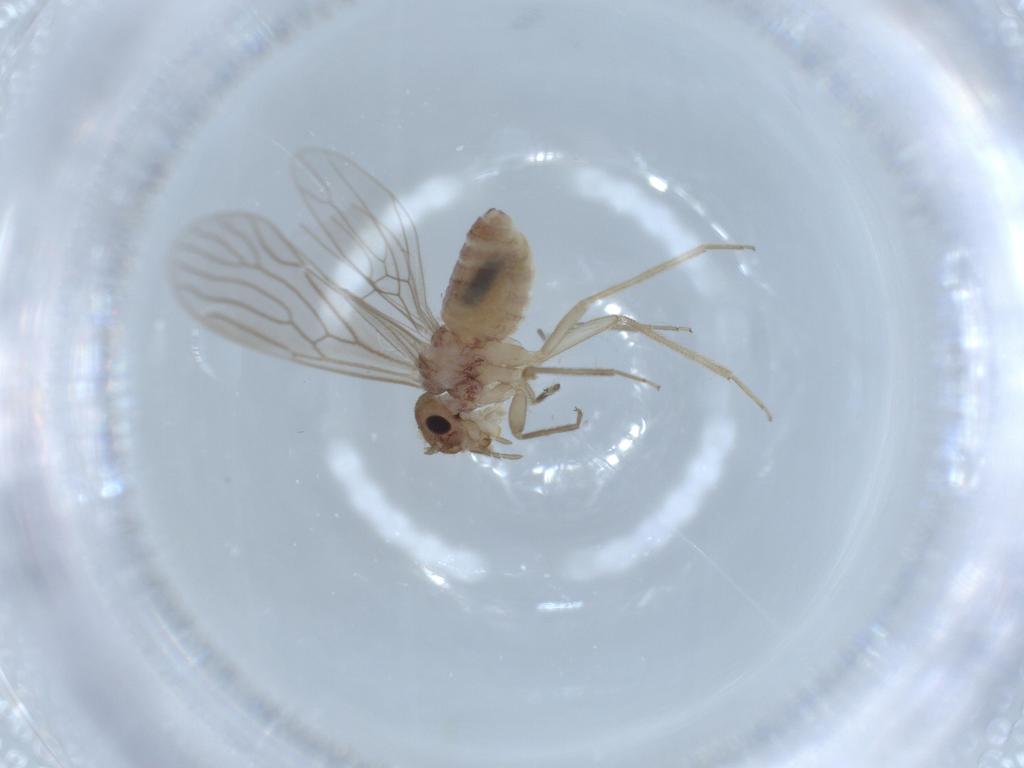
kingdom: Animalia
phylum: Arthropoda
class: Insecta
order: Psocodea
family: Cladiopsocidae
